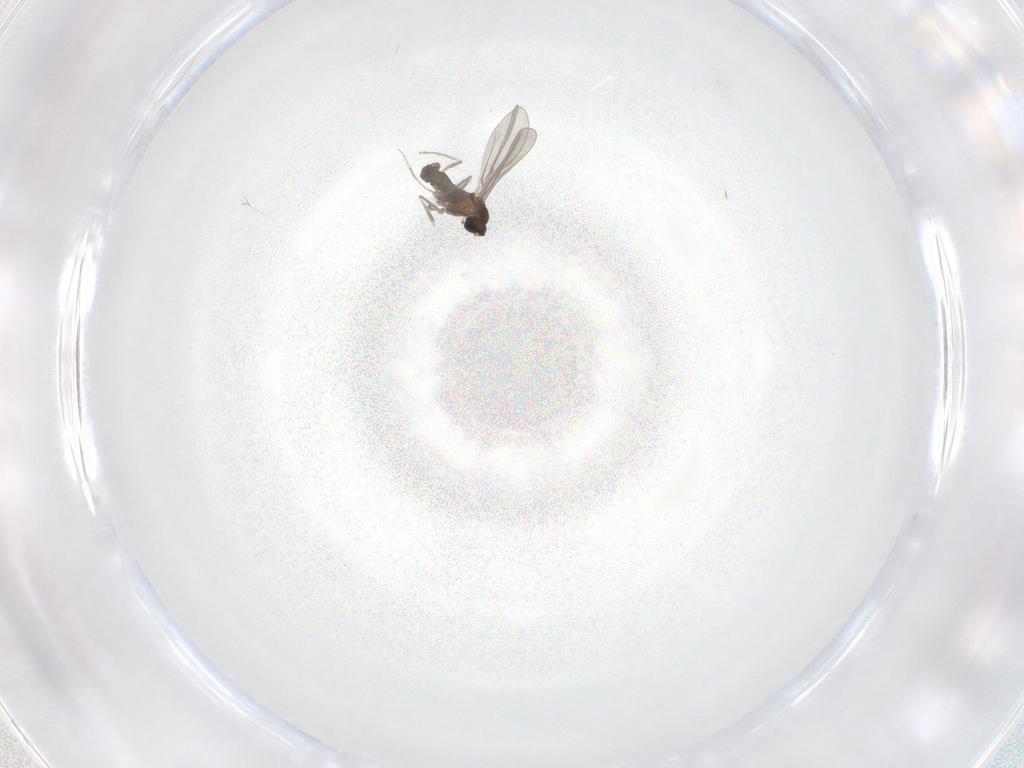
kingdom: Animalia
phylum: Arthropoda
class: Insecta
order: Diptera
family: Chironomidae
